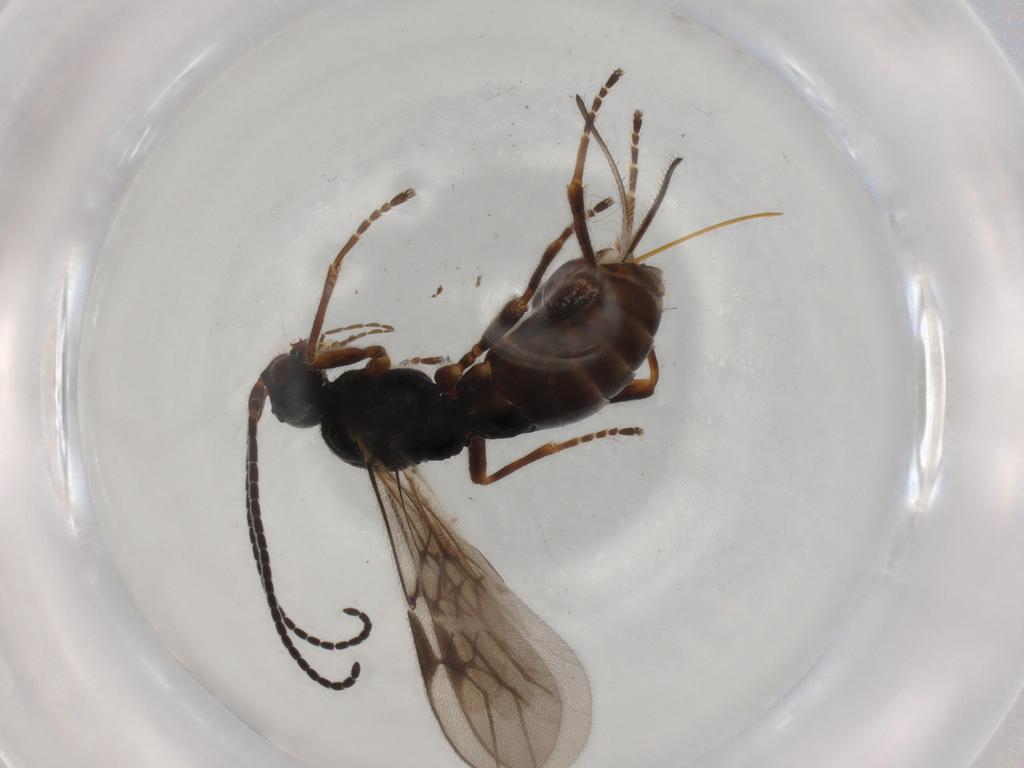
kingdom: Animalia
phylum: Arthropoda
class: Insecta
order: Hymenoptera
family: Braconidae
